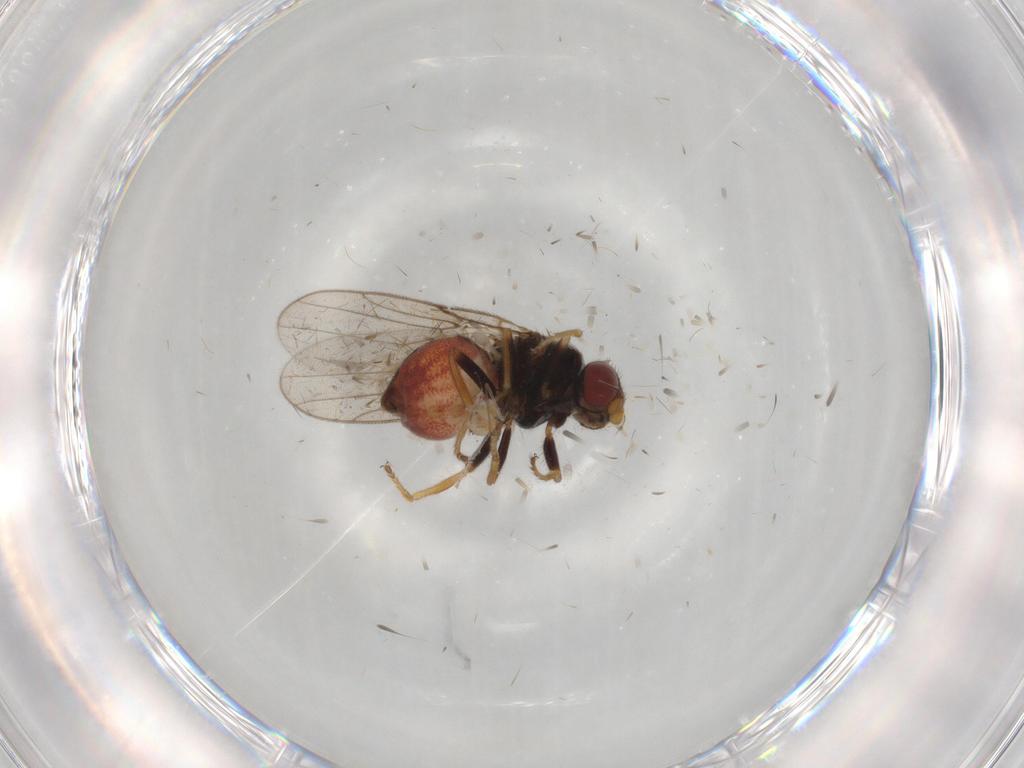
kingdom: Animalia
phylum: Arthropoda
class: Insecta
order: Diptera
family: Chloropidae
